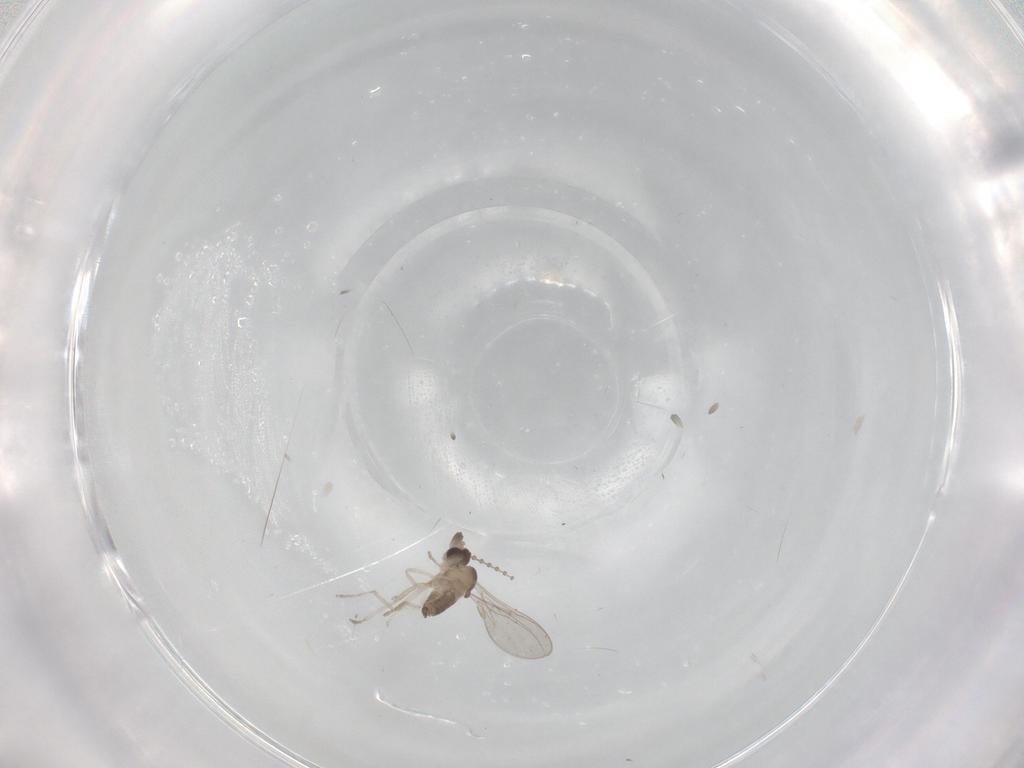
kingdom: Animalia
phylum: Arthropoda
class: Insecta
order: Diptera
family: Cecidomyiidae
